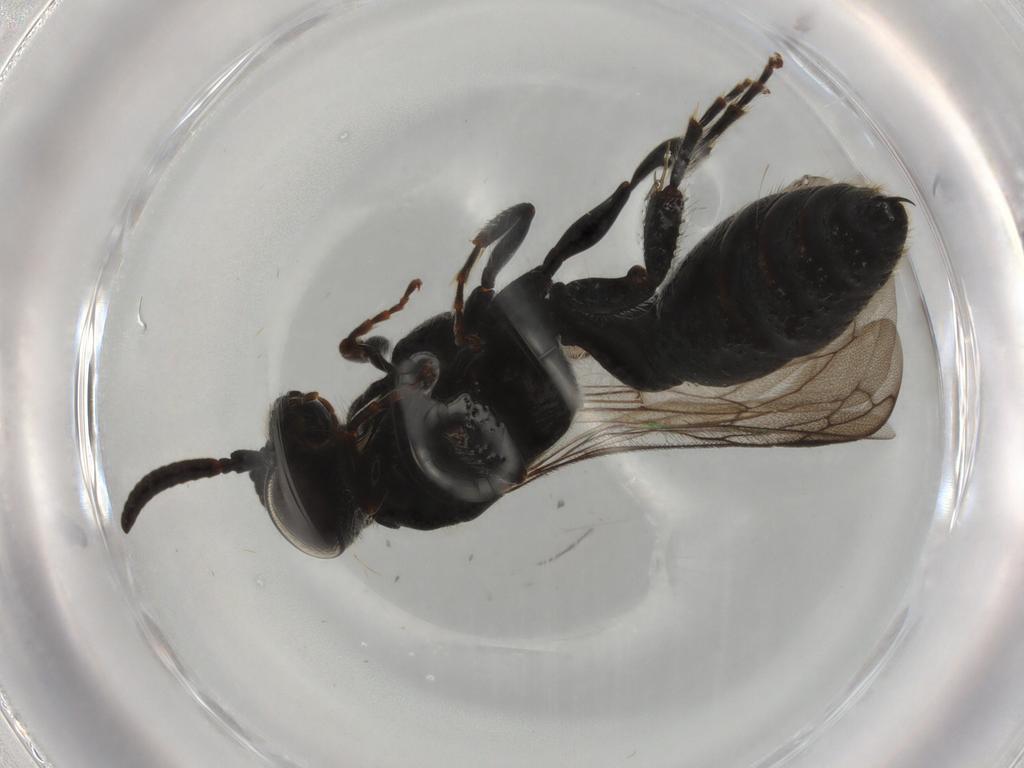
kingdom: Animalia
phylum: Arthropoda
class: Insecta
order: Hymenoptera
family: Tiphiidae
